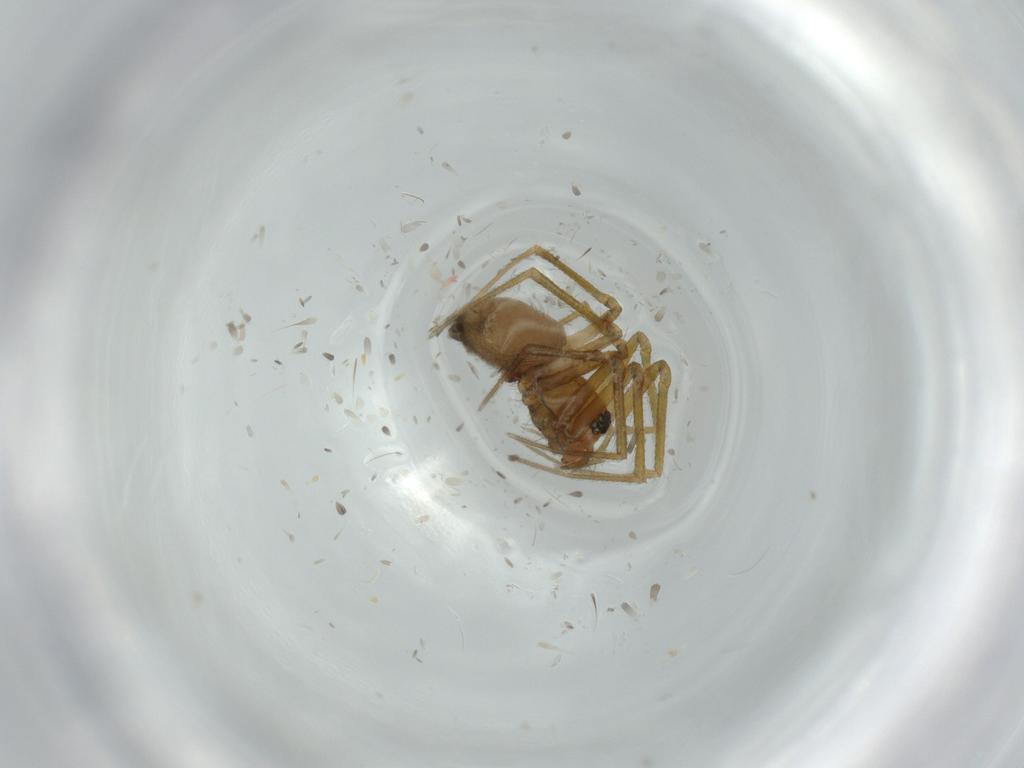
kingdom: Animalia
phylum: Arthropoda
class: Arachnida
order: Araneae
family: Linyphiidae
